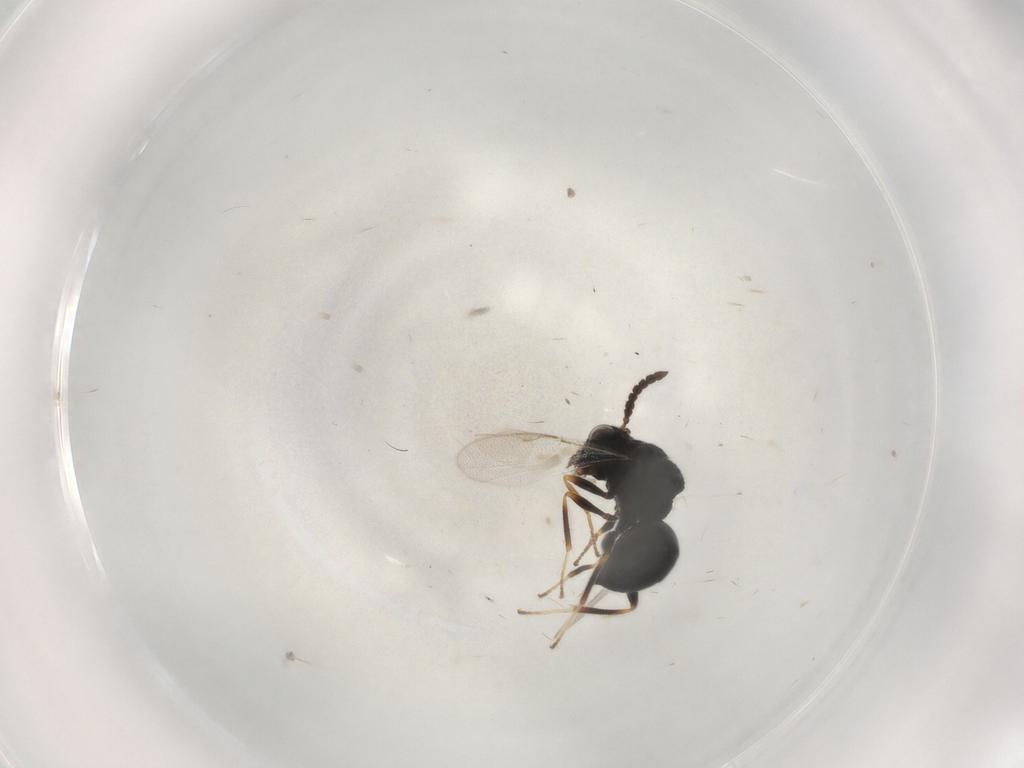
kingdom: Animalia
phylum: Arthropoda
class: Insecta
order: Hymenoptera
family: Eurytomidae
